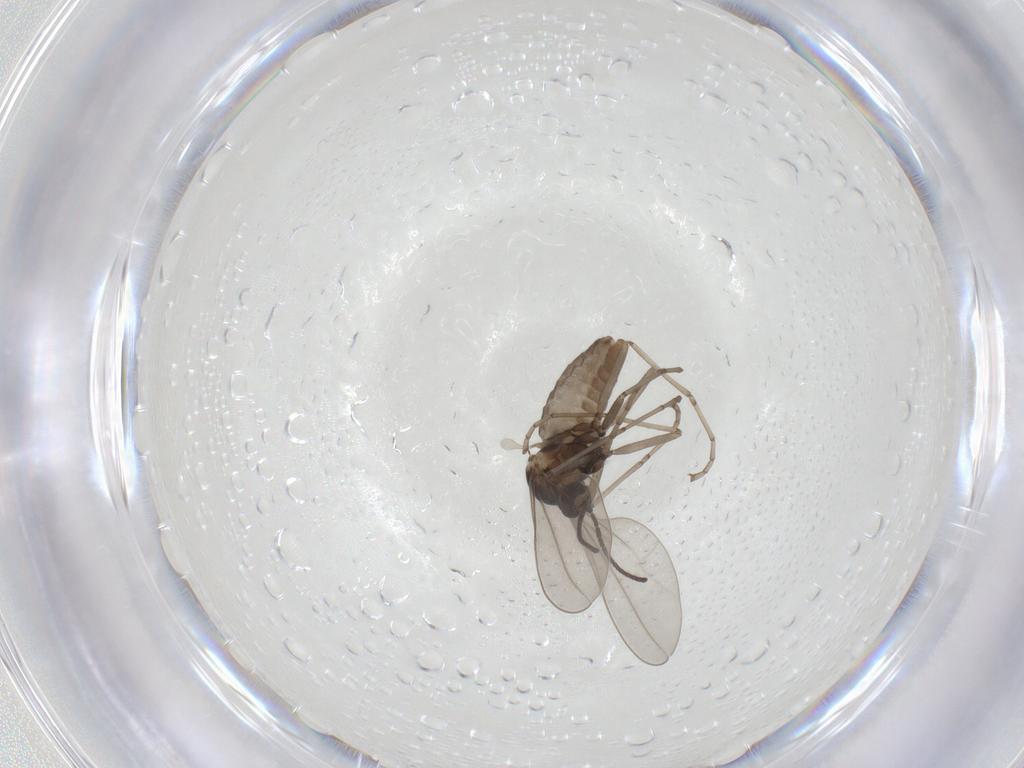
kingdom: Animalia
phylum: Arthropoda
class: Insecta
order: Diptera
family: Cecidomyiidae
